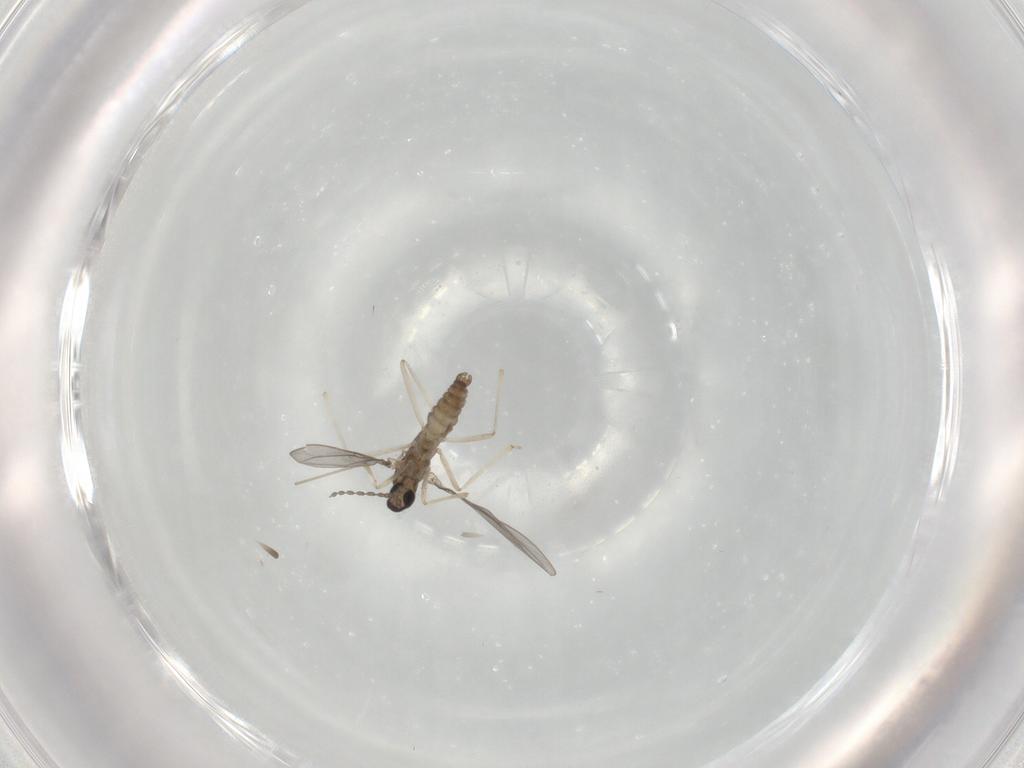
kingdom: Animalia
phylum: Arthropoda
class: Insecta
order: Diptera
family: Cecidomyiidae
